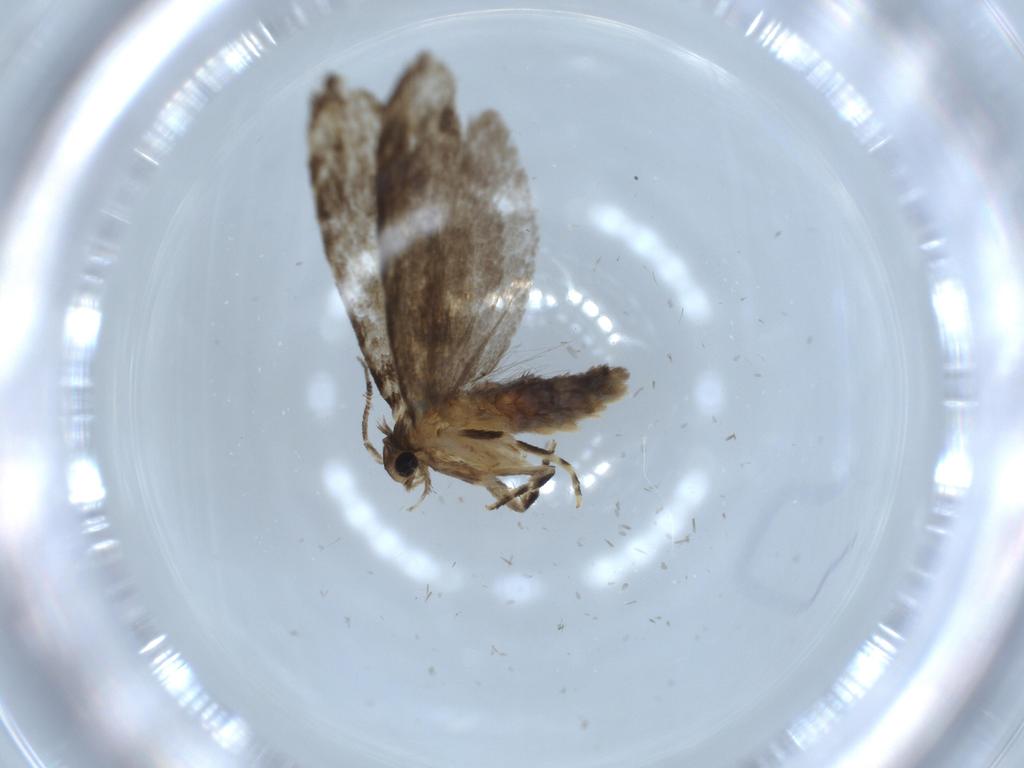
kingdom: Animalia
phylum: Arthropoda
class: Insecta
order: Lepidoptera
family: Tineidae
